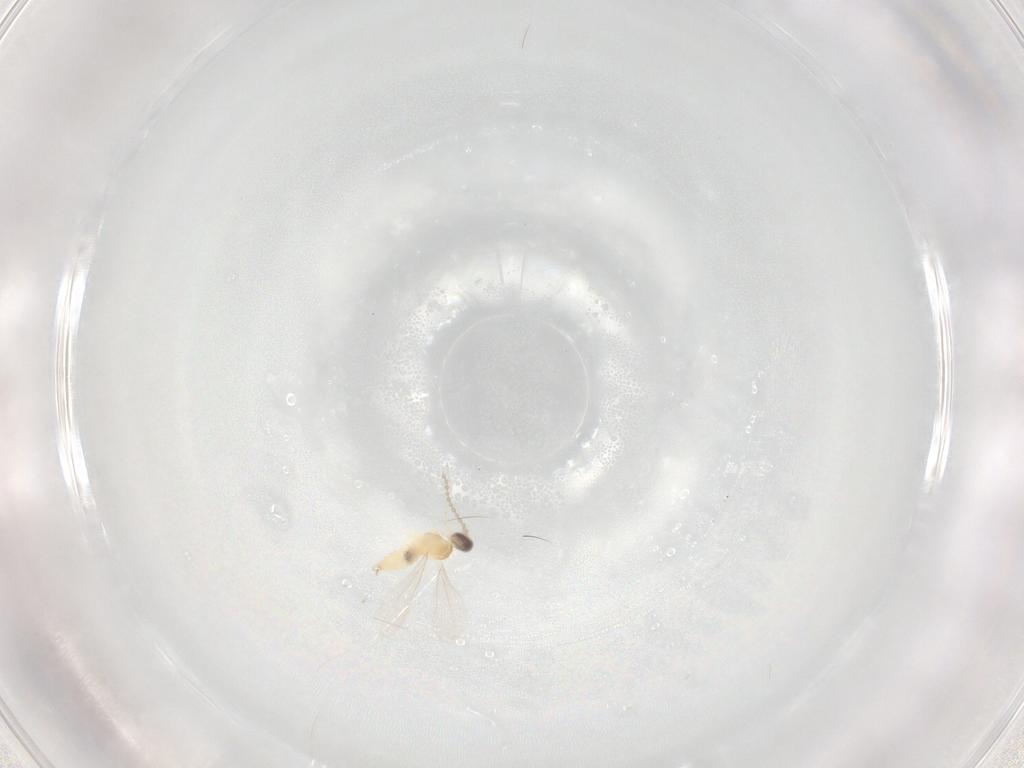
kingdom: Animalia
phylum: Arthropoda
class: Insecta
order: Diptera
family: Cecidomyiidae
